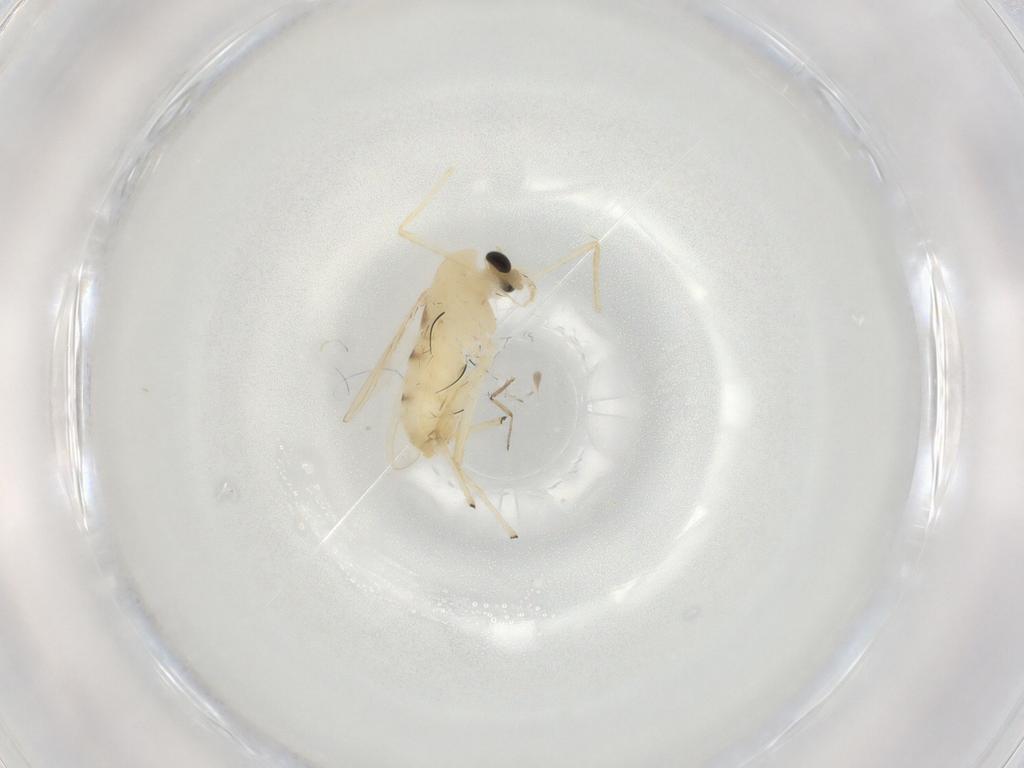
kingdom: Animalia
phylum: Arthropoda
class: Insecta
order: Diptera
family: Chironomidae
